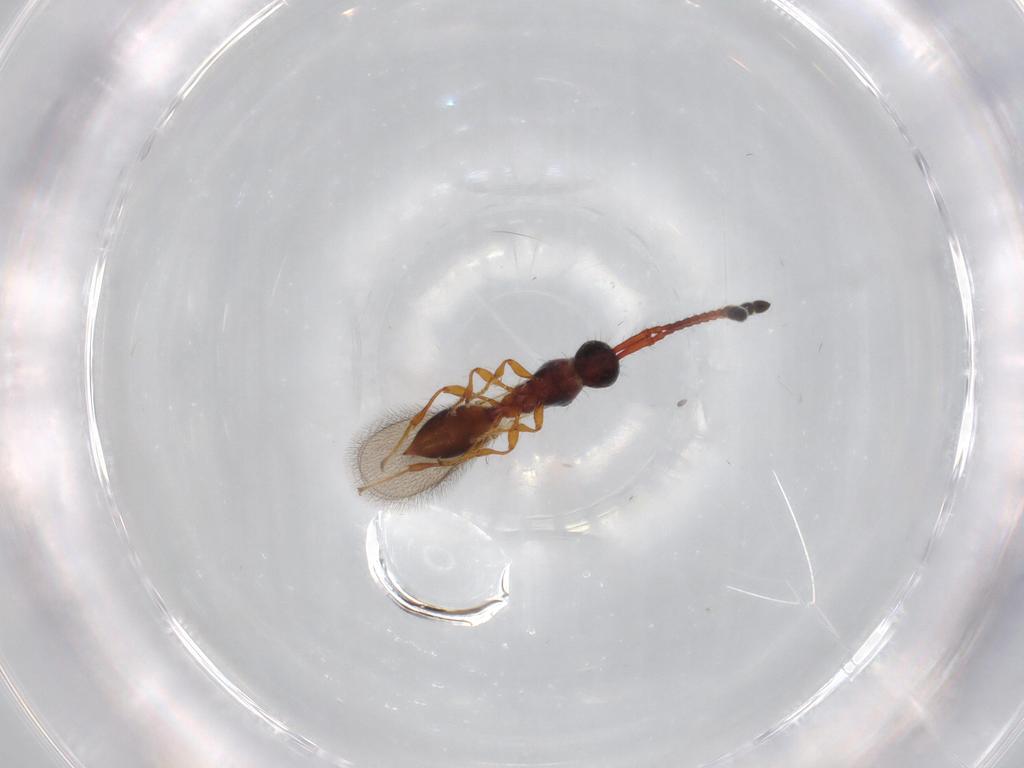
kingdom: Animalia
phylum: Arthropoda
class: Insecta
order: Hymenoptera
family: Diapriidae
